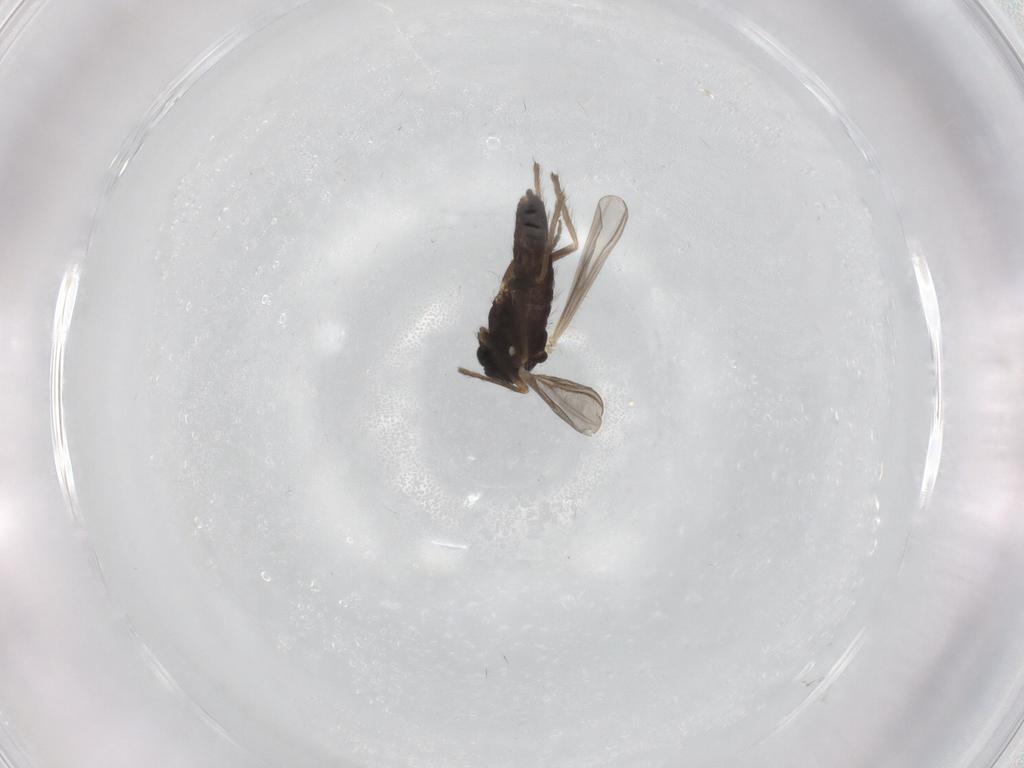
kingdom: Animalia
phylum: Arthropoda
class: Insecta
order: Diptera
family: Chironomidae
